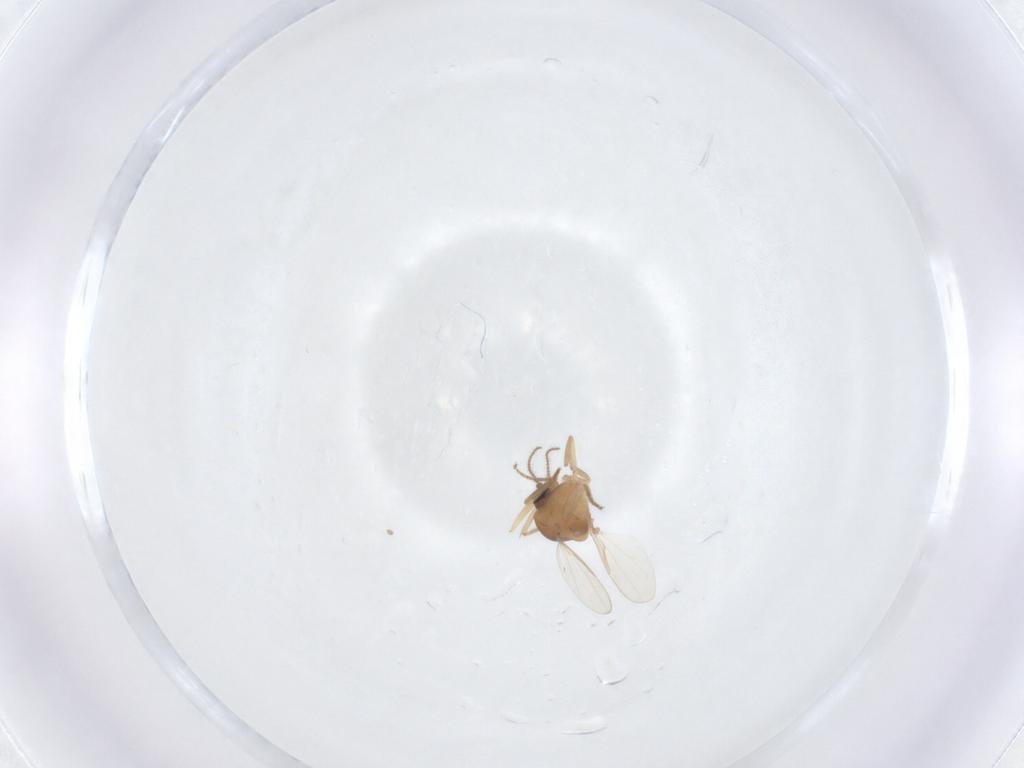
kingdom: Animalia
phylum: Arthropoda
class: Insecta
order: Diptera
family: Ceratopogonidae
